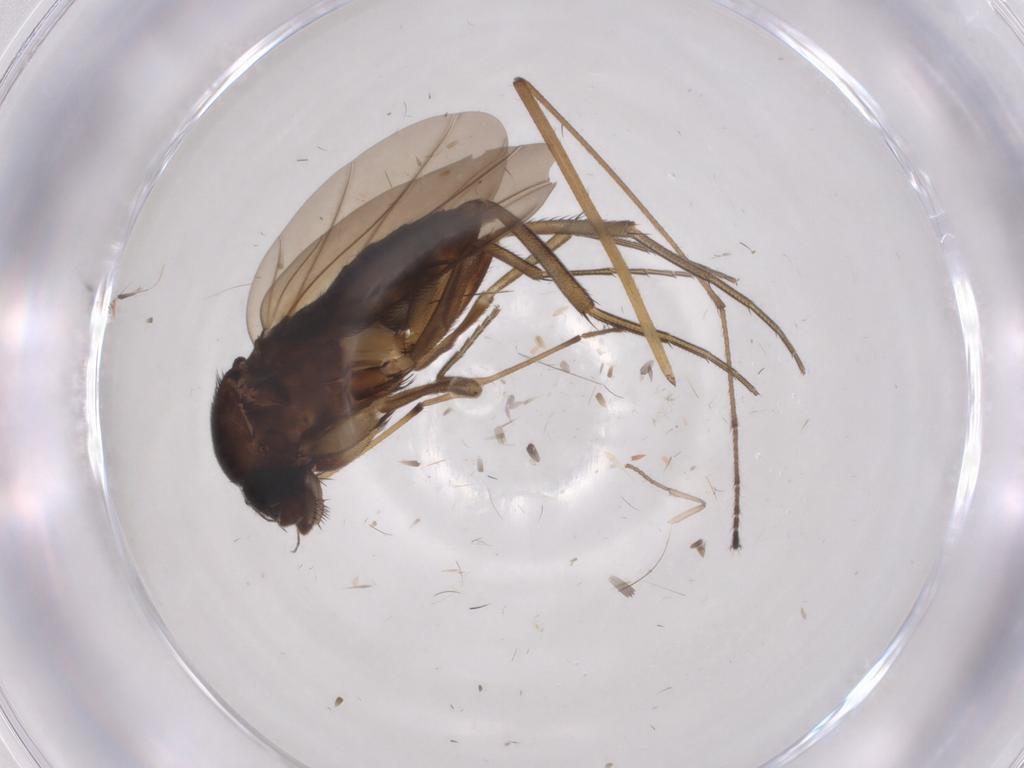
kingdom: Animalia
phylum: Arthropoda
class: Insecta
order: Diptera
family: Phoridae
